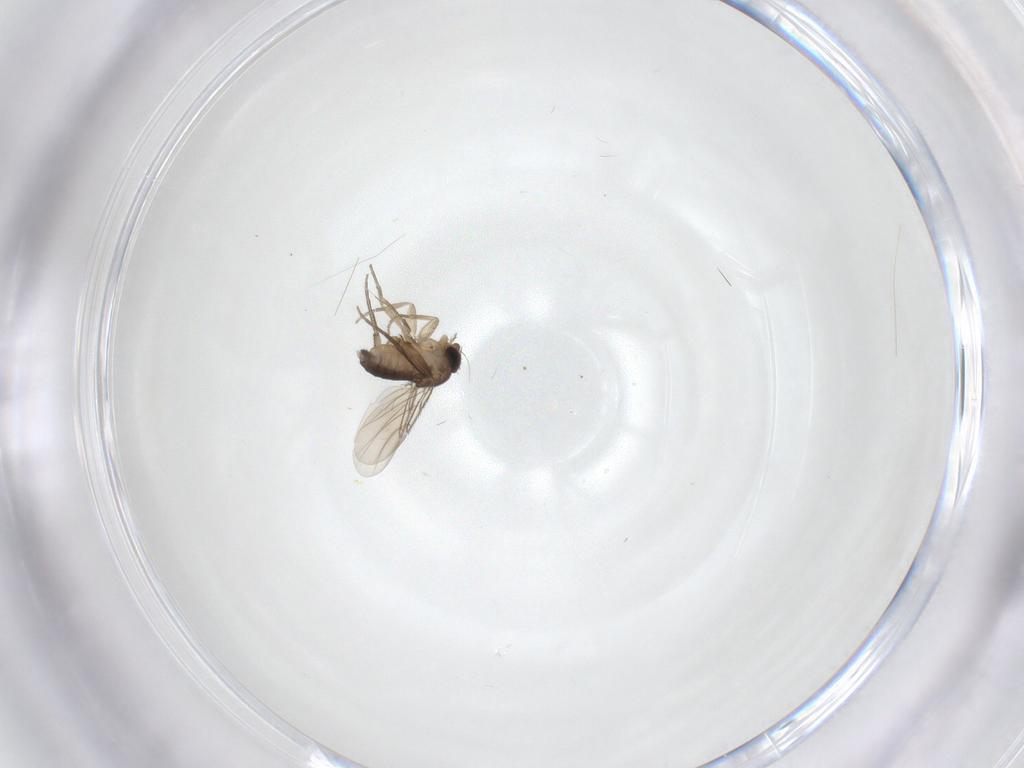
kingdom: Animalia
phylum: Arthropoda
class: Insecta
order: Diptera
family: Phoridae
